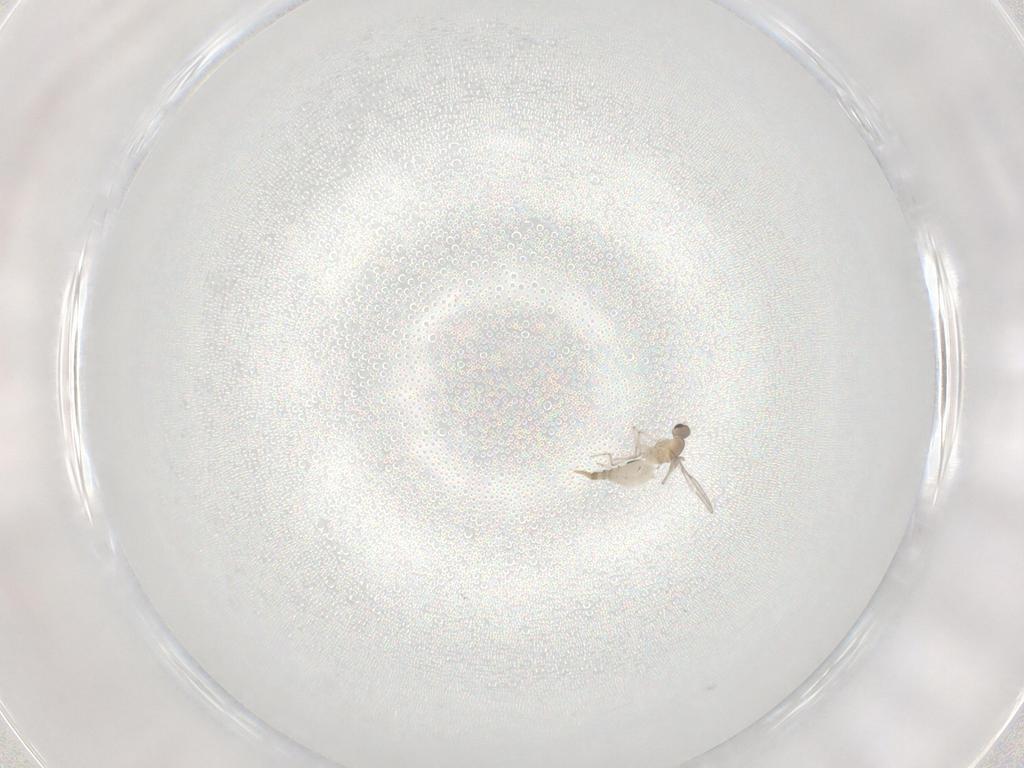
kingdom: Animalia
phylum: Arthropoda
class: Insecta
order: Diptera
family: Cecidomyiidae
